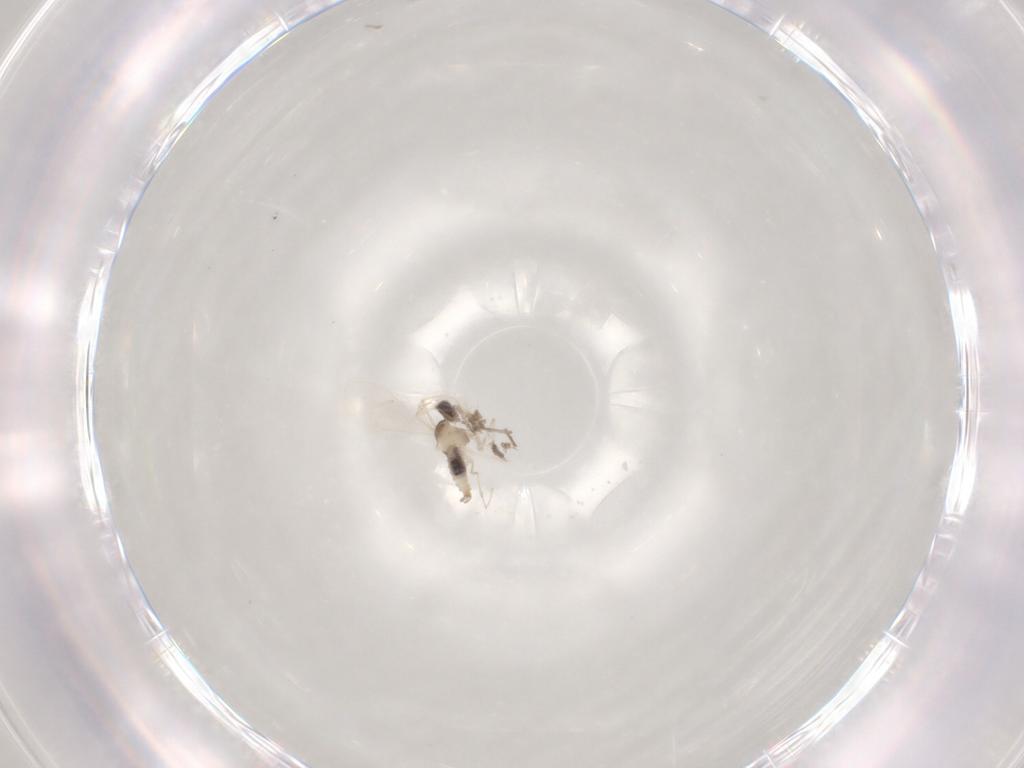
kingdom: Animalia
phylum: Arthropoda
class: Insecta
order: Diptera
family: Cecidomyiidae
